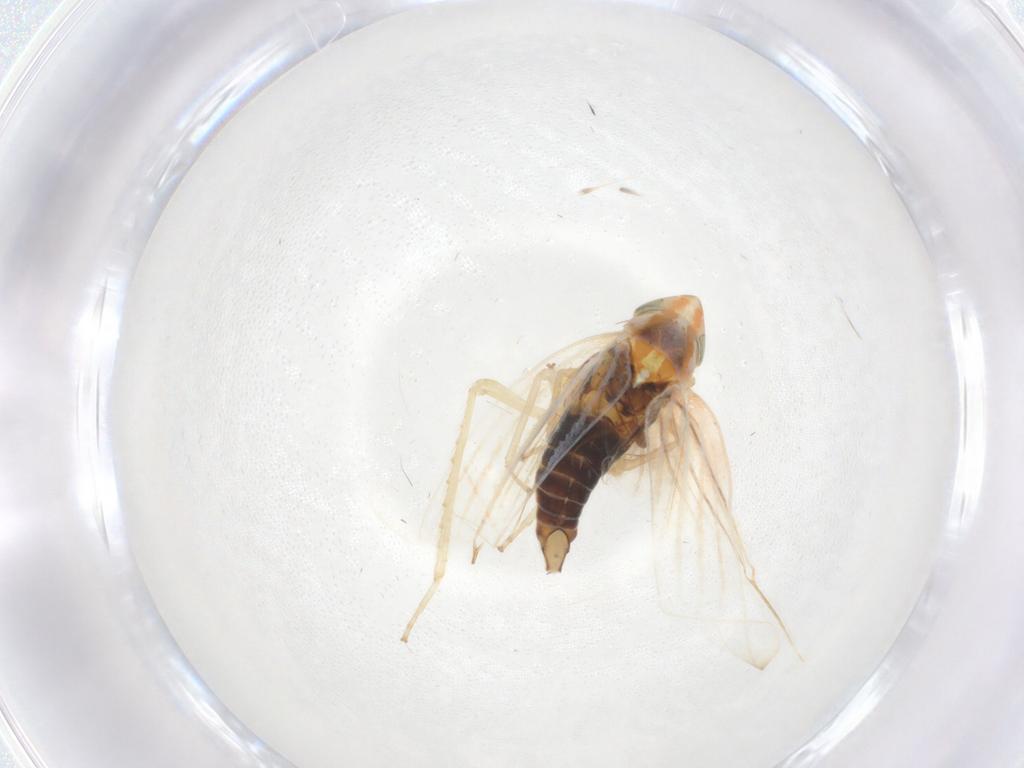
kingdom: Animalia
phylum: Arthropoda
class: Insecta
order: Hemiptera
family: Cicadellidae
